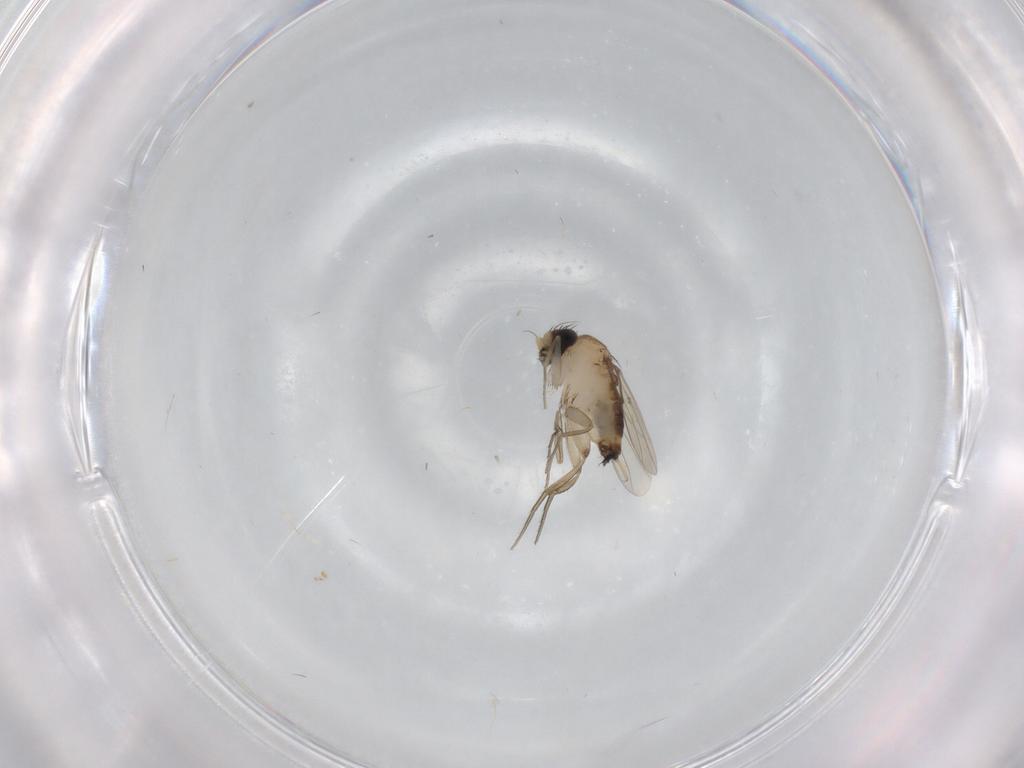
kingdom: Animalia
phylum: Arthropoda
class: Insecta
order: Diptera
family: Phoridae
